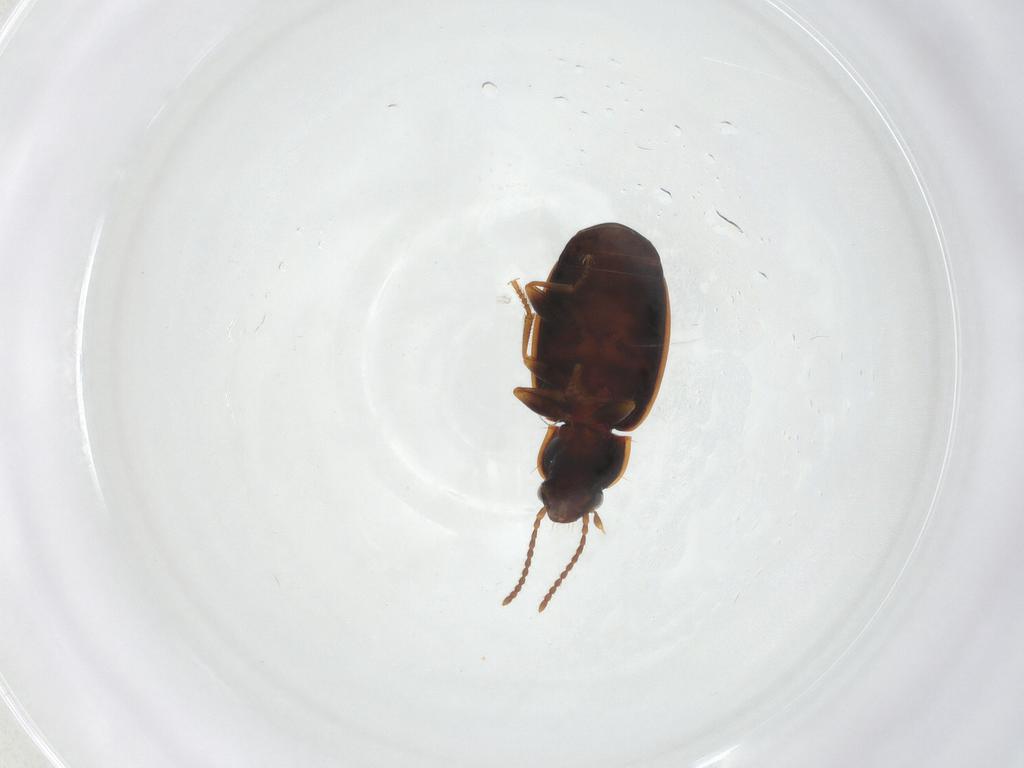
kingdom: Animalia
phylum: Arthropoda
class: Insecta
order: Coleoptera
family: Carabidae
